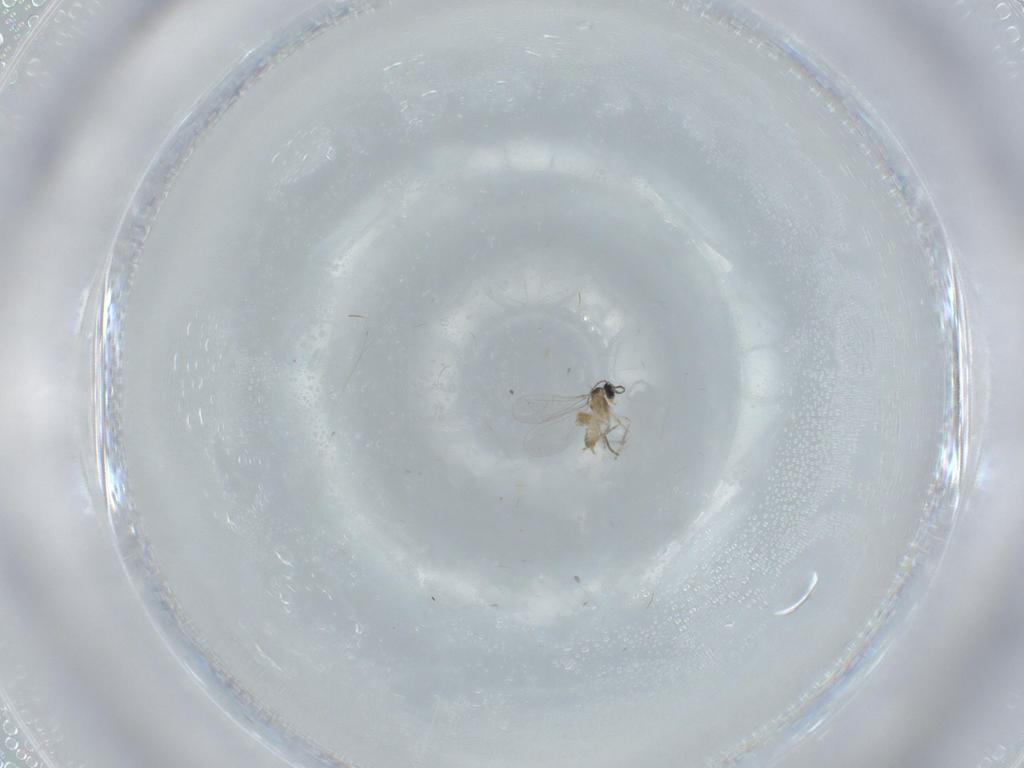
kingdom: Animalia
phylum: Arthropoda
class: Insecta
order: Diptera
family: Cecidomyiidae
